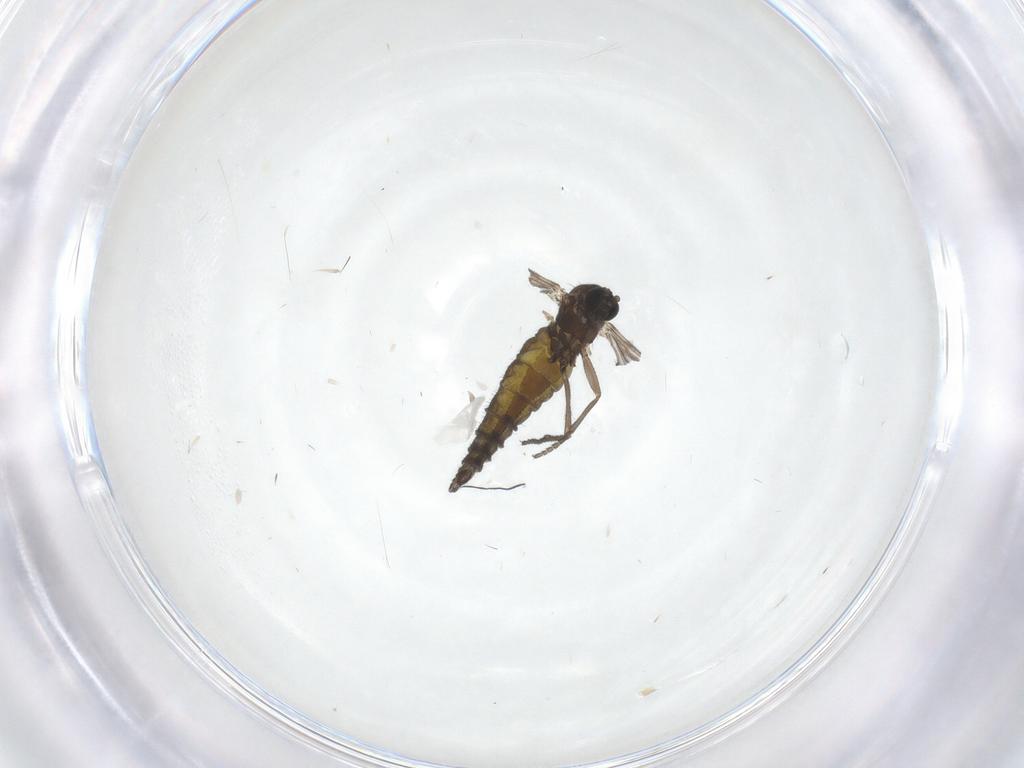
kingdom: Animalia
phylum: Arthropoda
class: Insecta
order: Diptera
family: Sciaridae
